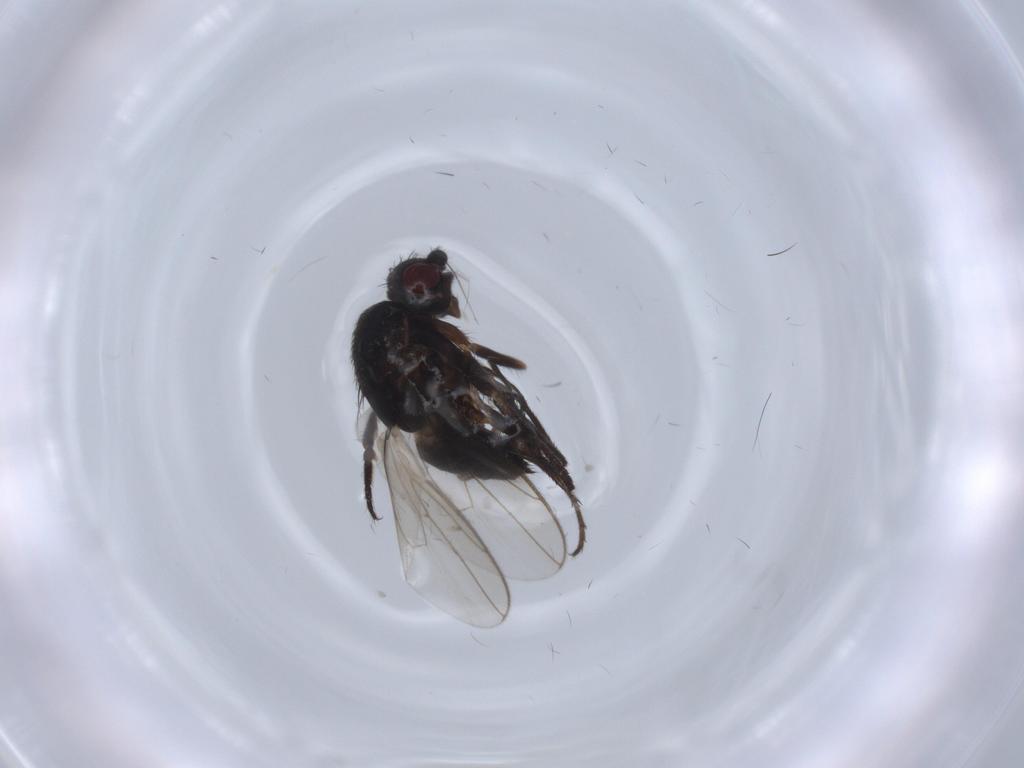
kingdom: Animalia
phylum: Arthropoda
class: Insecta
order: Diptera
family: Sphaeroceridae
